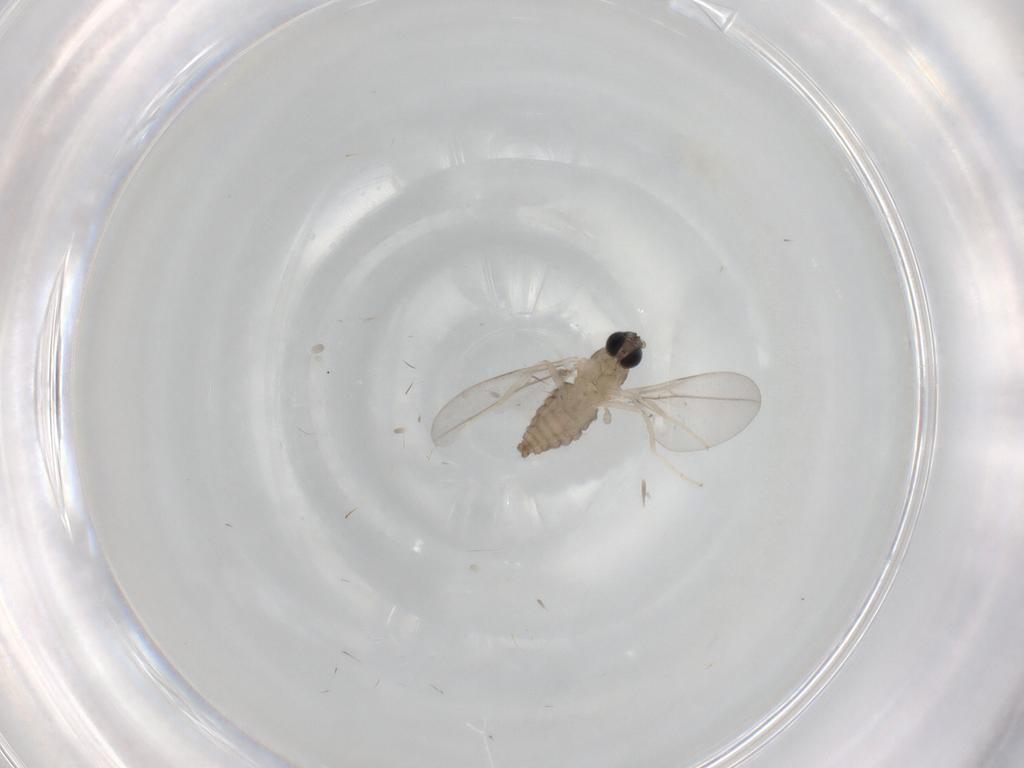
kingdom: Animalia
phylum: Arthropoda
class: Insecta
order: Diptera
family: Cecidomyiidae
